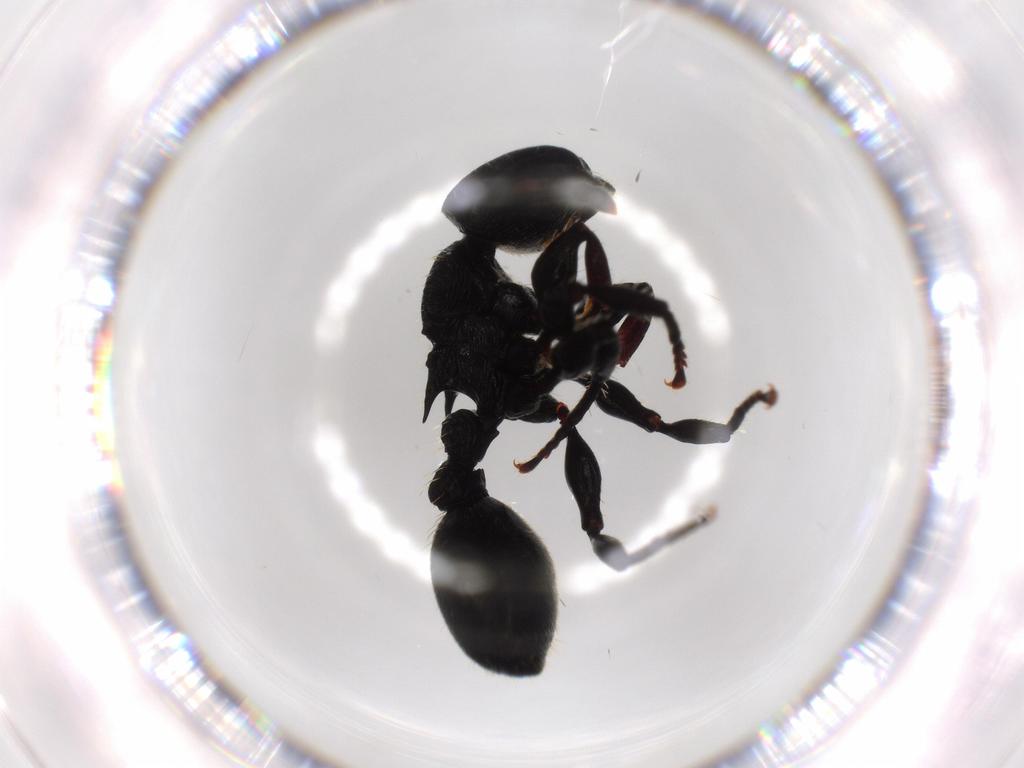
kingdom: Animalia
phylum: Arthropoda
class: Insecta
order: Hymenoptera
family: Formicidae
